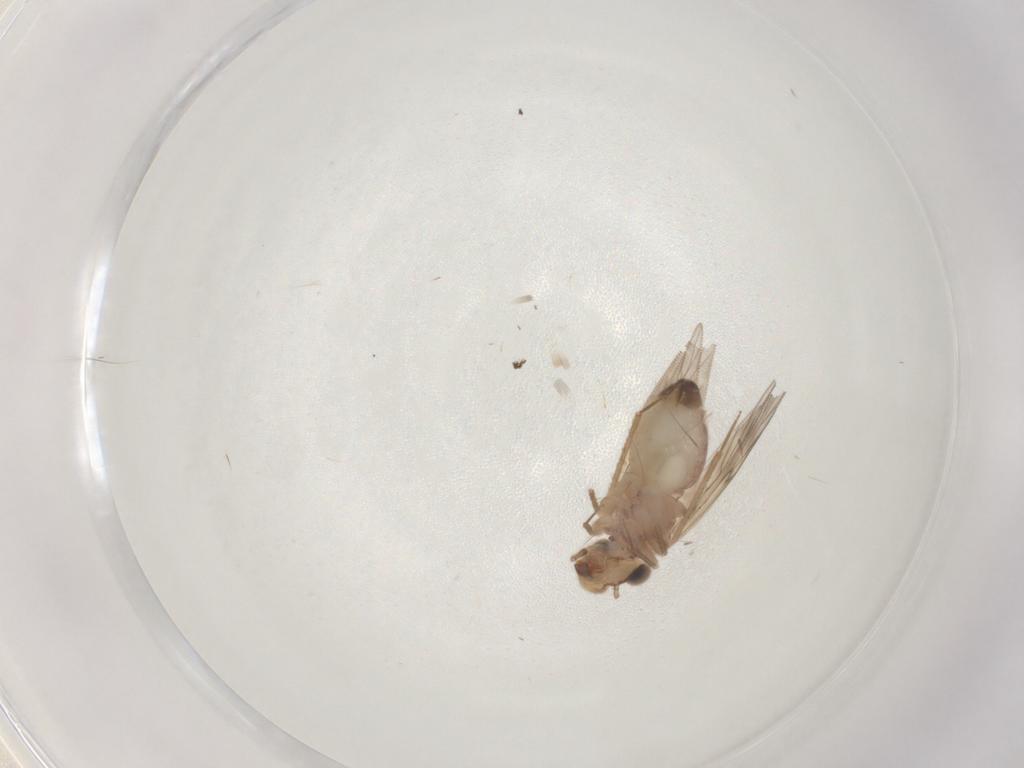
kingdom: Animalia
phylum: Arthropoda
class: Insecta
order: Psocodea
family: Lepidopsocidae
